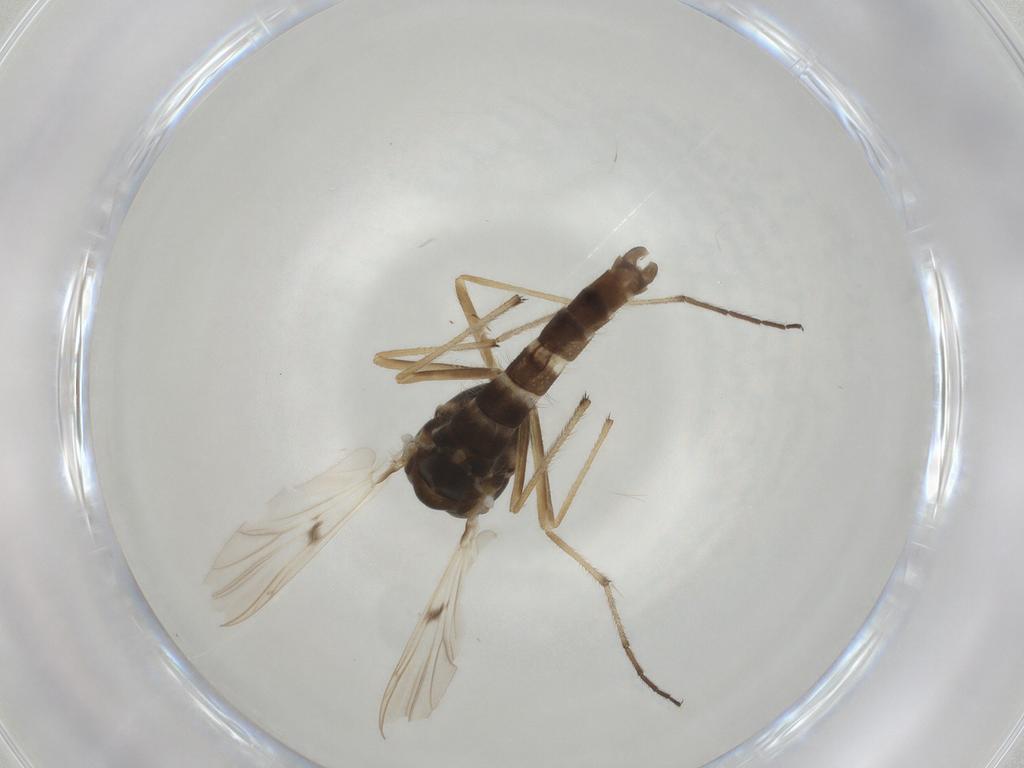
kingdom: Animalia
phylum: Arthropoda
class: Insecta
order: Diptera
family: Chironomidae
